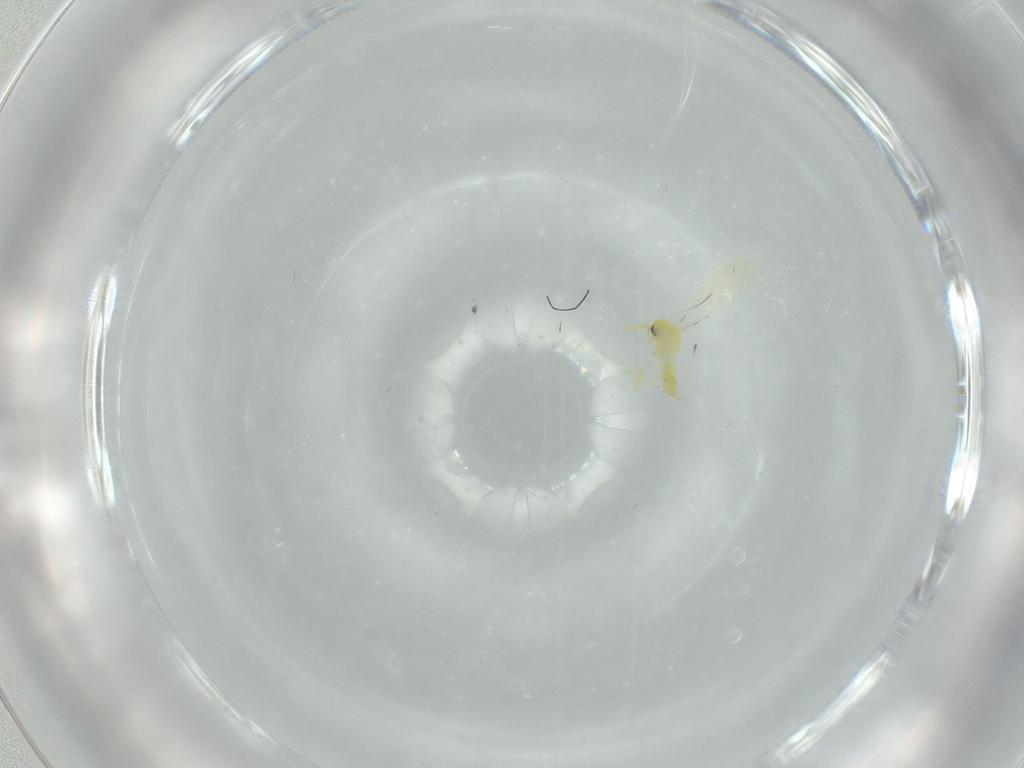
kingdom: Animalia
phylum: Arthropoda
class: Insecta
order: Hemiptera
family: Aleyrodidae
